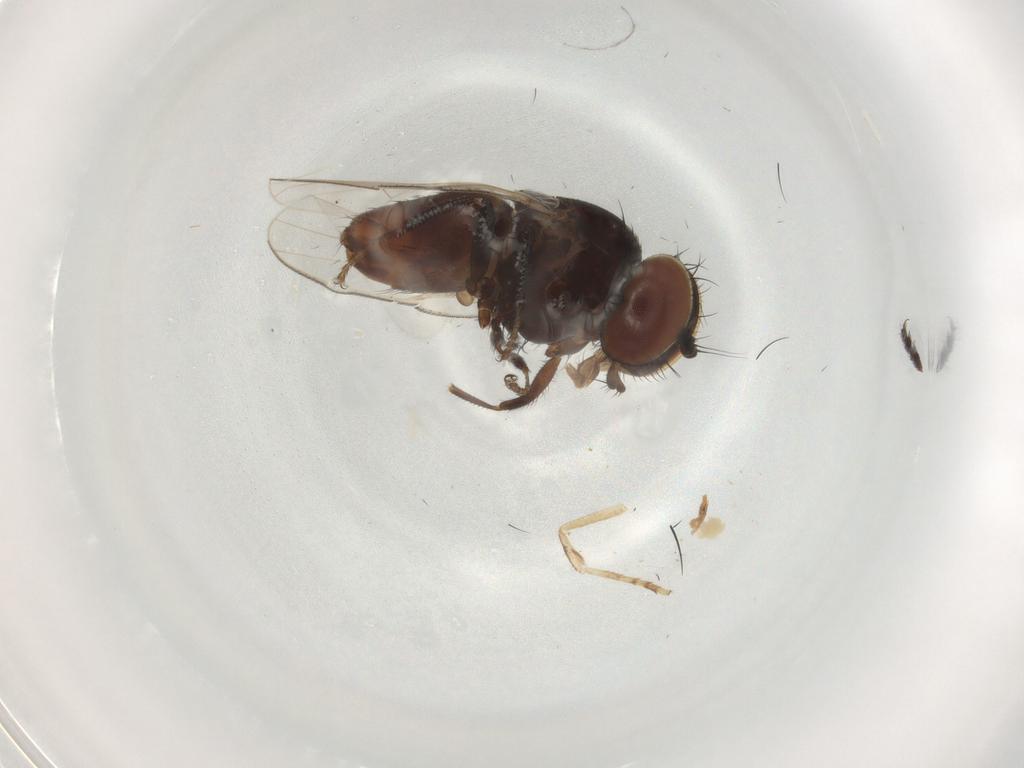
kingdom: Animalia
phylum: Arthropoda
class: Insecta
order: Diptera
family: Milichiidae
